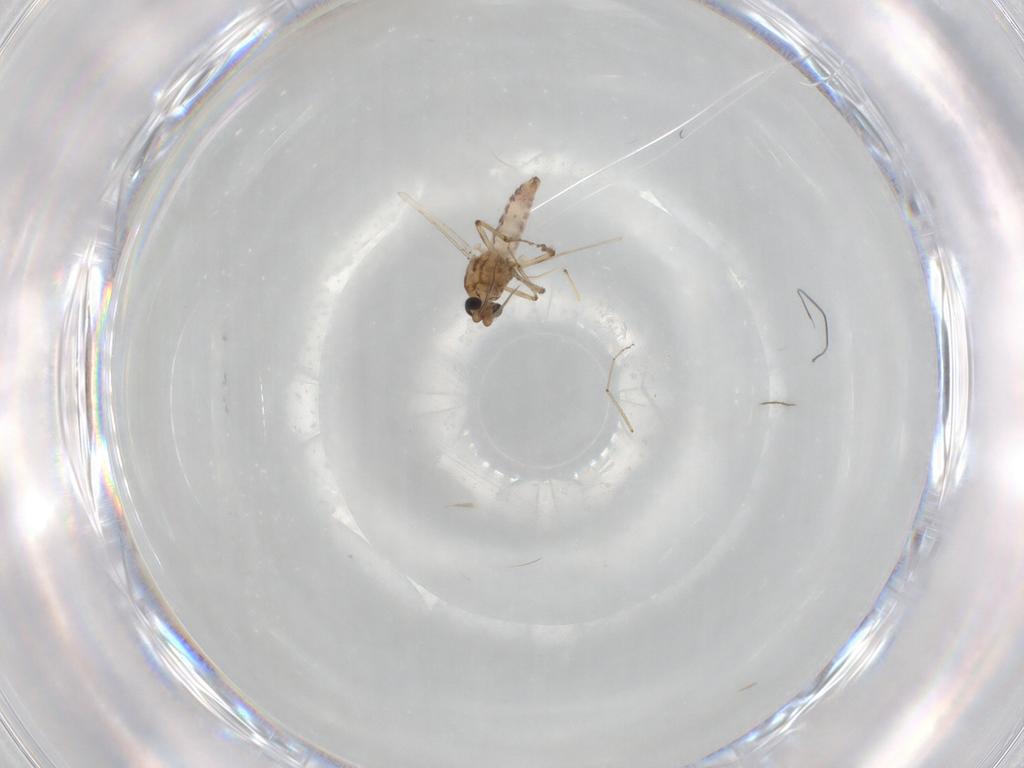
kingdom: Animalia
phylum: Arthropoda
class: Insecta
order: Diptera
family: Ceratopogonidae
